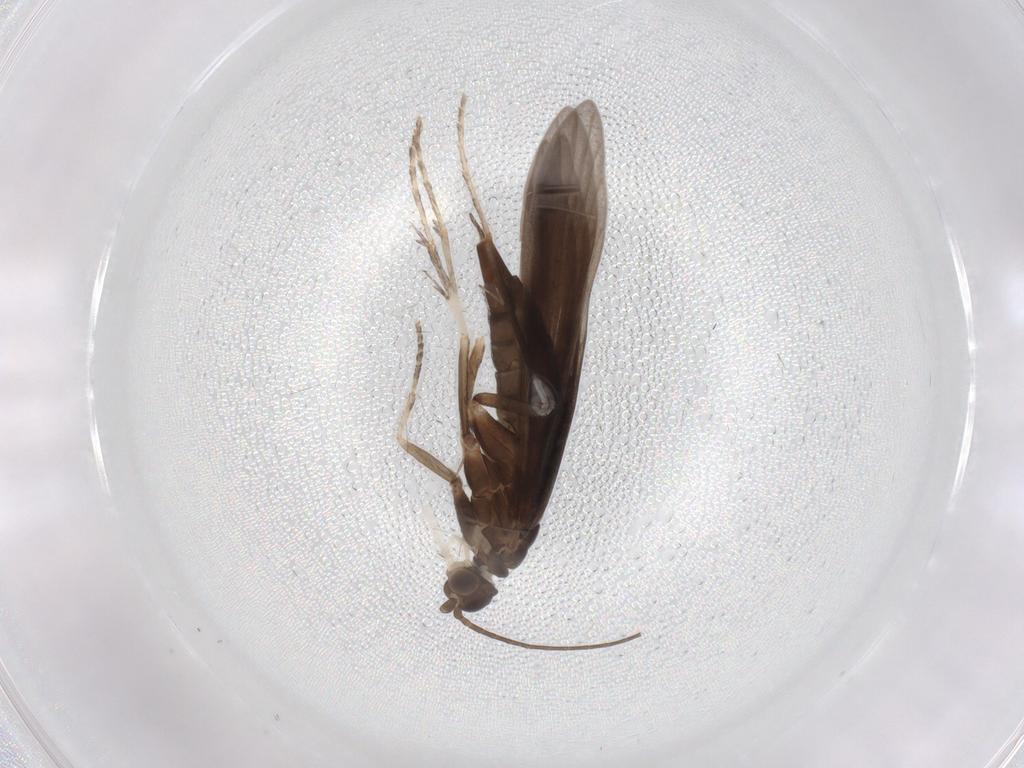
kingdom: Animalia
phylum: Arthropoda
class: Insecta
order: Trichoptera
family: Xiphocentronidae
